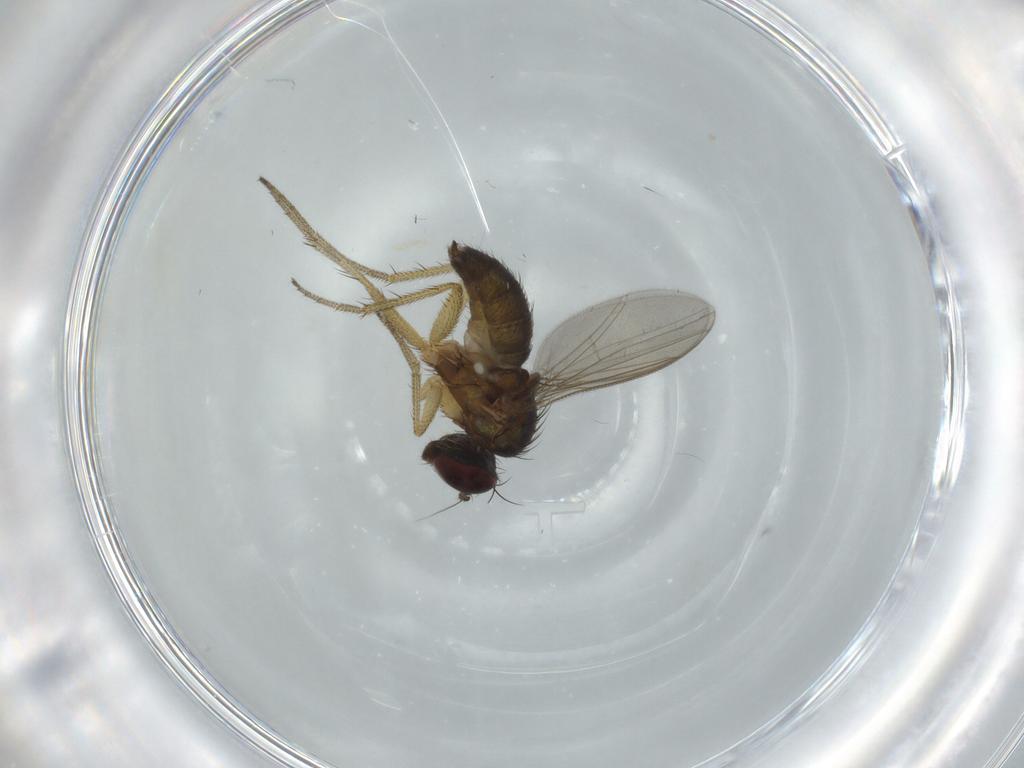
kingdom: Animalia
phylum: Arthropoda
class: Insecta
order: Diptera
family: Dolichopodidae
